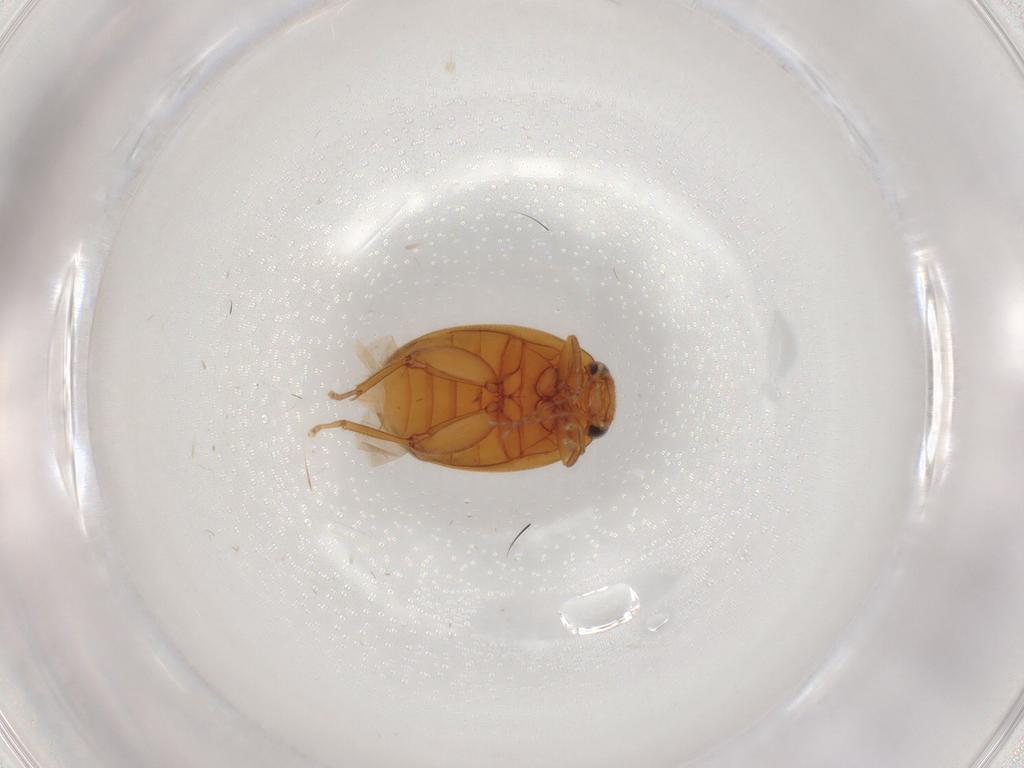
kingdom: Animalia
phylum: Arthropoda
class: Insecta
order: Coleoptera
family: Scirtidae
